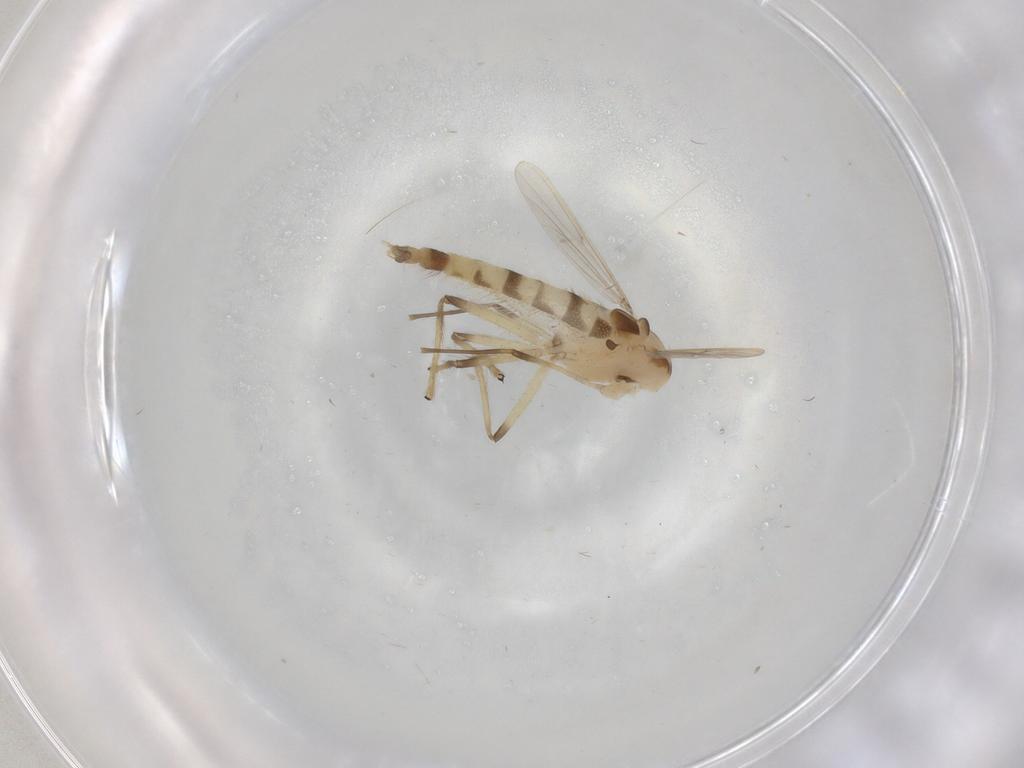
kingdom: Animalia
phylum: Arthropoda
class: Insecta
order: Diptera
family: Chironomidae
